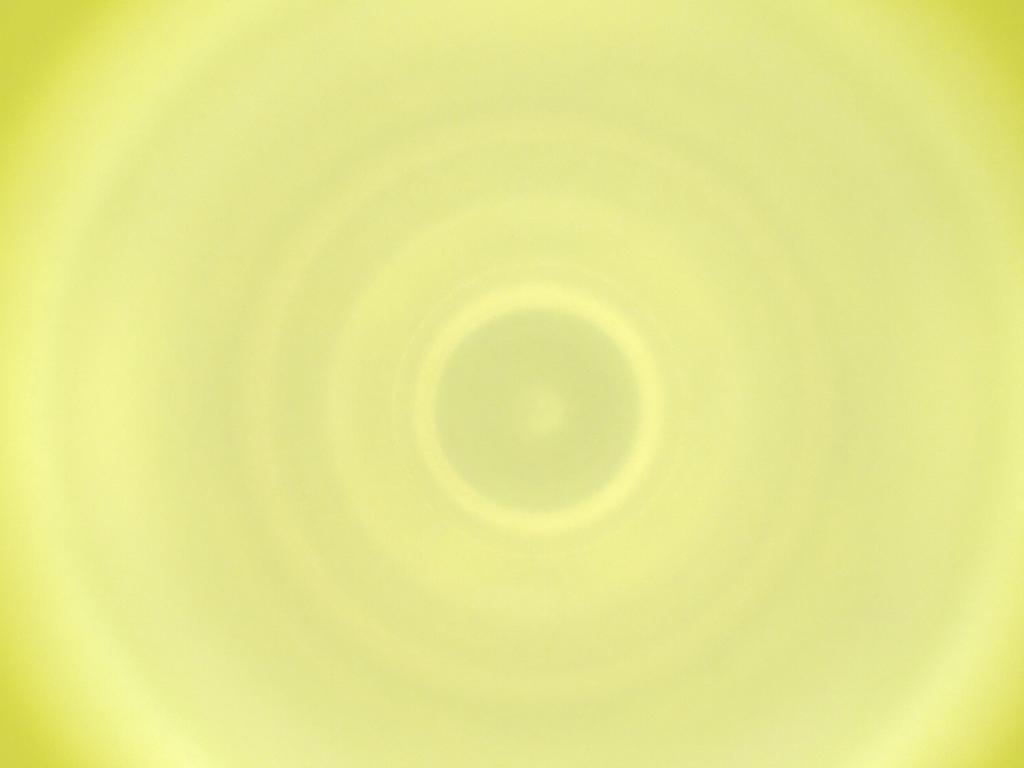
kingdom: Animalia
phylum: Arthropoda
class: Insecta
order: Diptera
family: Cecidomyiidae
